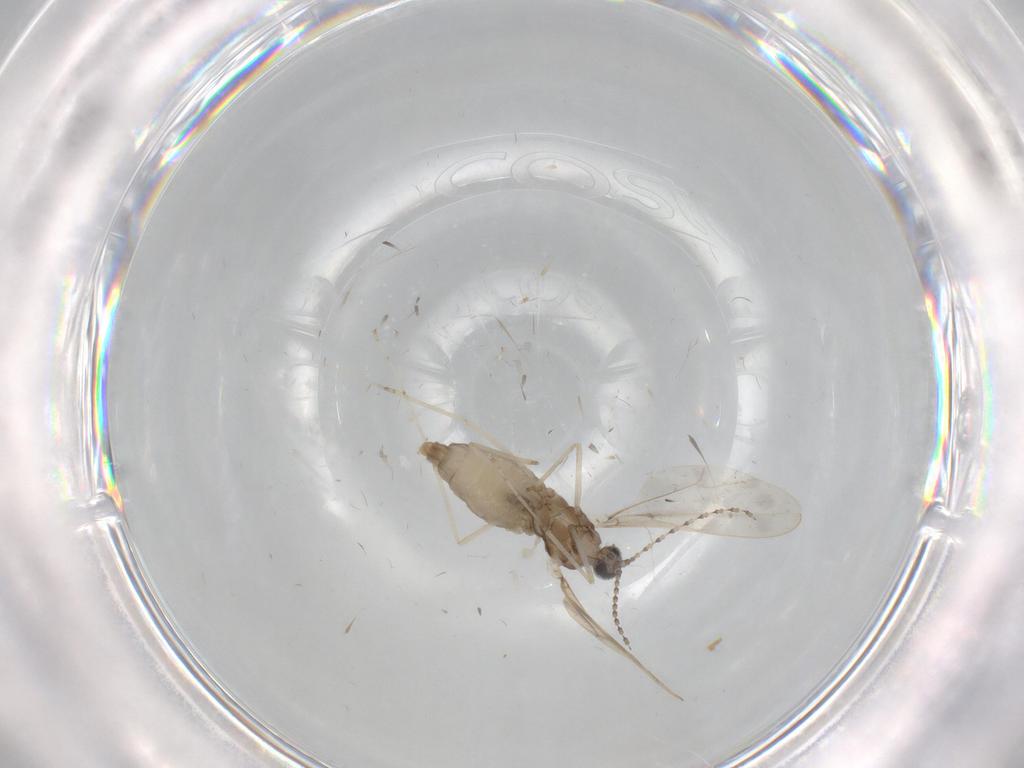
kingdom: Animalia
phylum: Arthropoda
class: Insecta
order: Diptera
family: Cecidomyiidae
